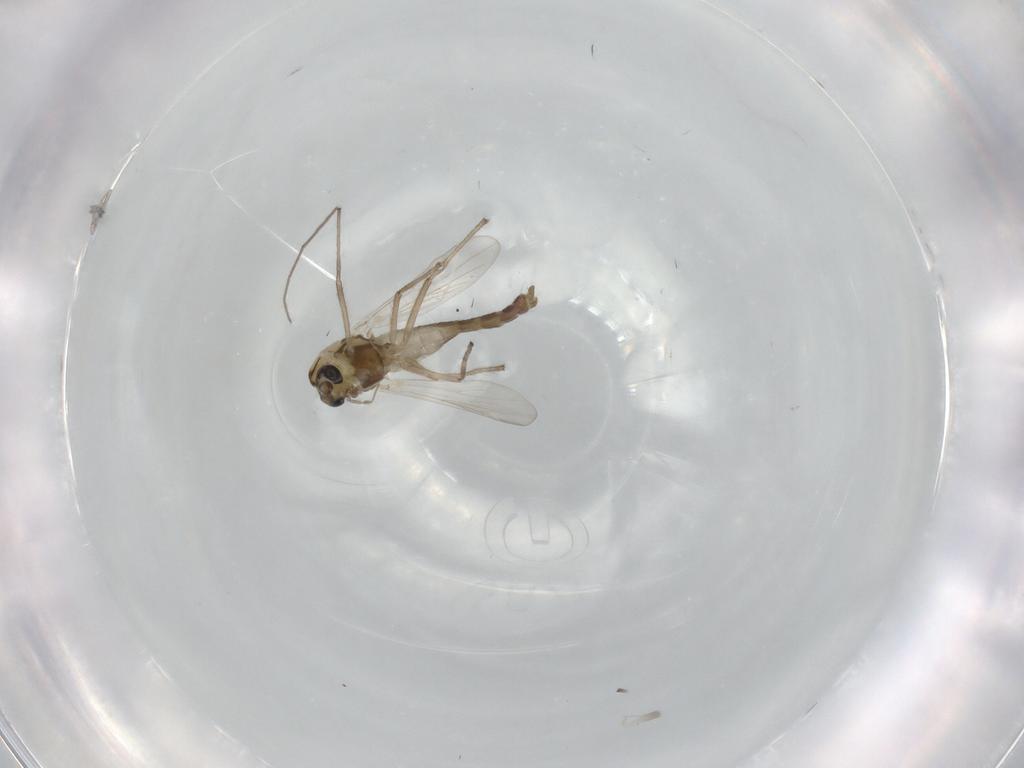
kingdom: Animalia
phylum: Arthropoda
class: Insecta
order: Diptera
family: Chironomidae
